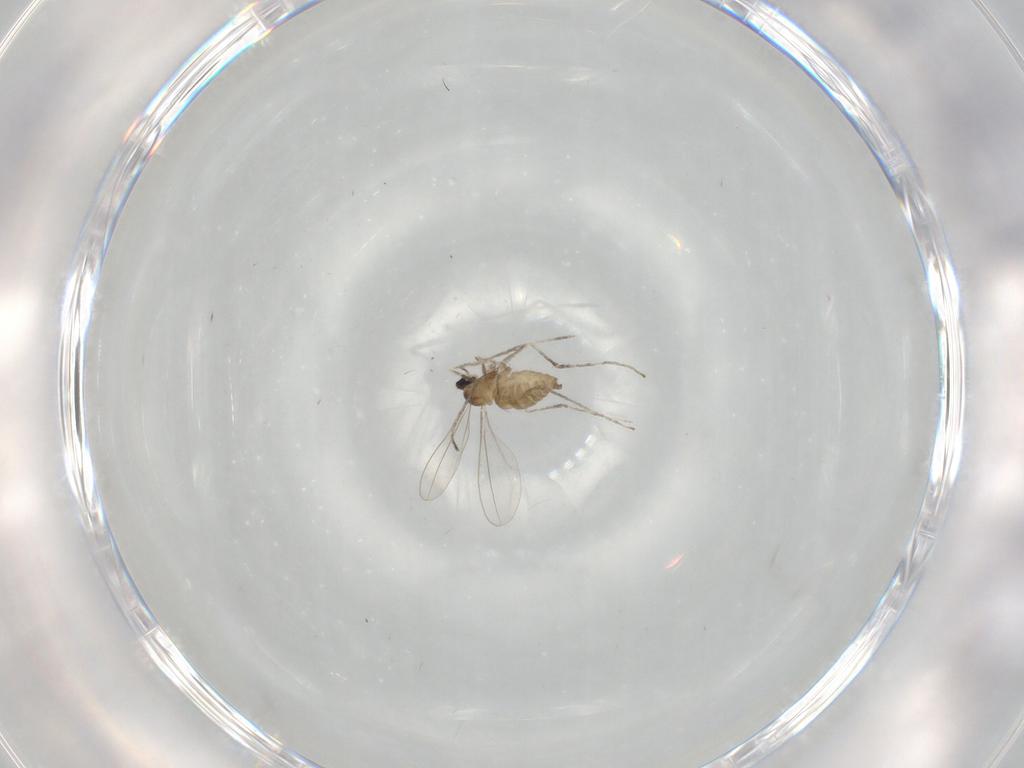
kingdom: Animalia
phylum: Arthropoda
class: Insecta
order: Diptera
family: Cecidomyiidae
